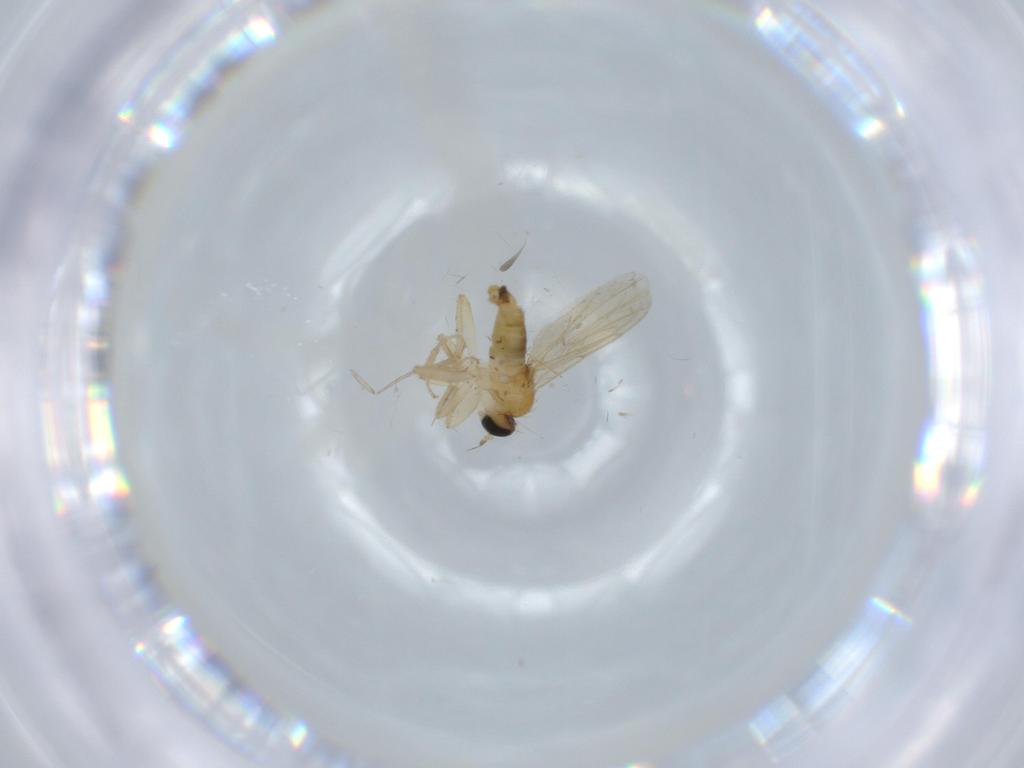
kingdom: Animalia
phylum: Arthropoda
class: Insecta
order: Diptera
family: Hybotidae
